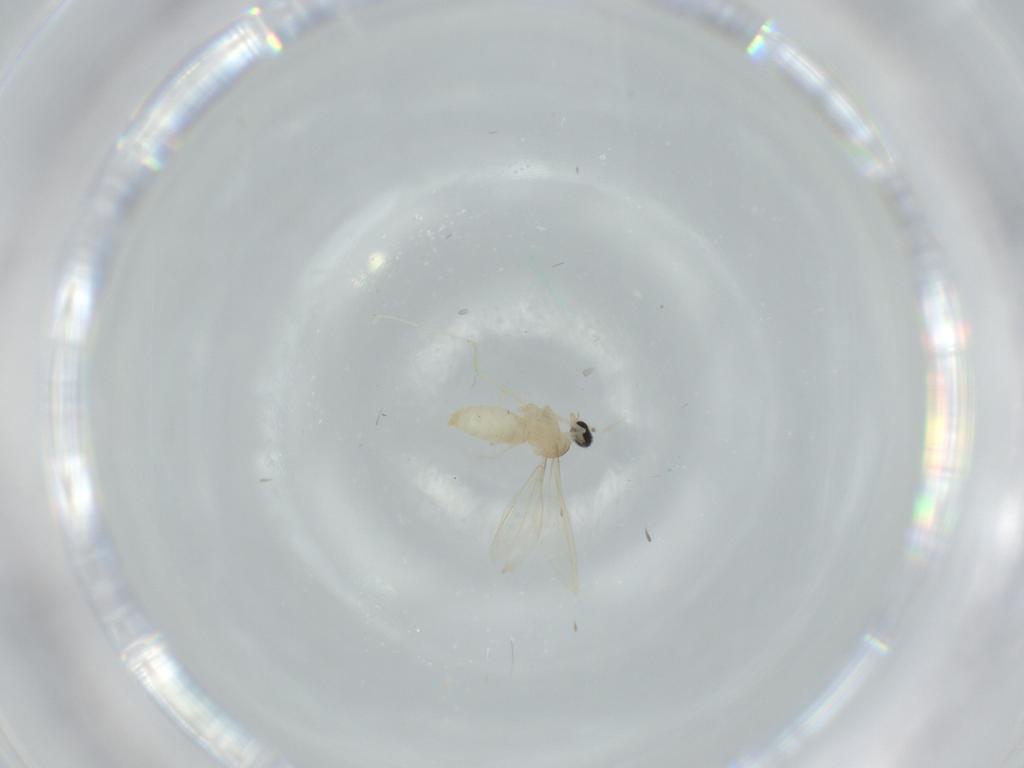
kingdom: Animalia
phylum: Arthropoda
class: Insecta
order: Diptera
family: Cecidomyiidae
